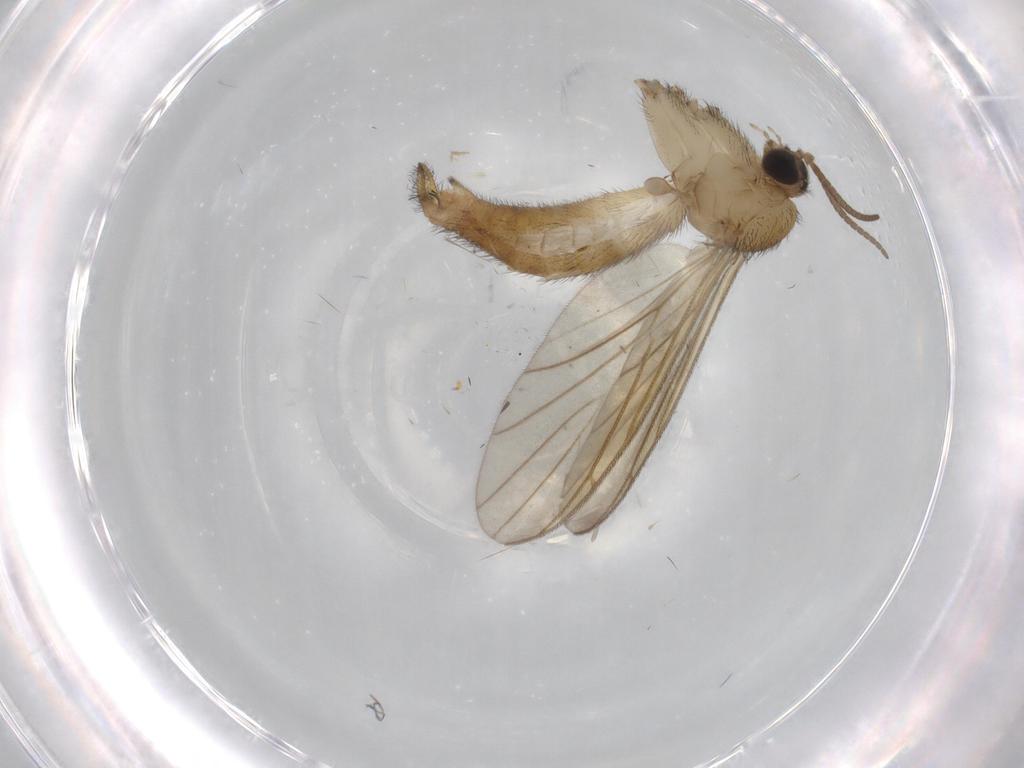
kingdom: Animalia
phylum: Arthropoda
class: Insecta
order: Diptera
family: Keroplatidae
